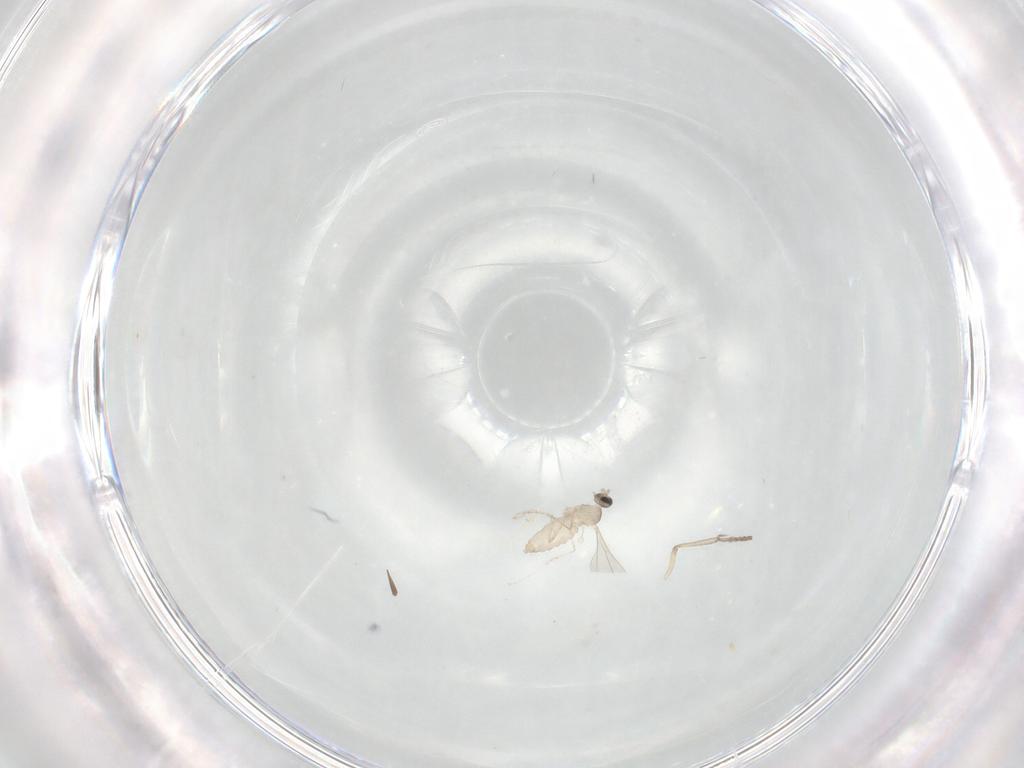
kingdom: Animalia
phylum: Arthropoda
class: Insecta
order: Diptera
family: Cecidomyiidae
